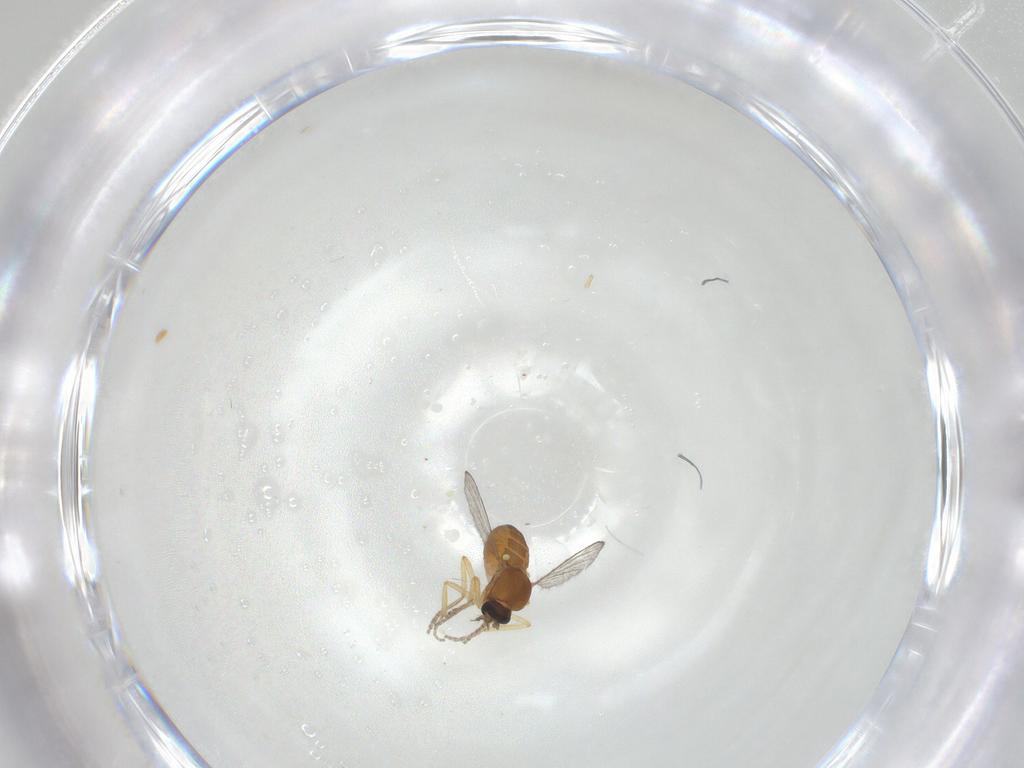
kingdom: Animalia
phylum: Arthropoda
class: Insecta
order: Diptera
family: Ceratopogonidae
